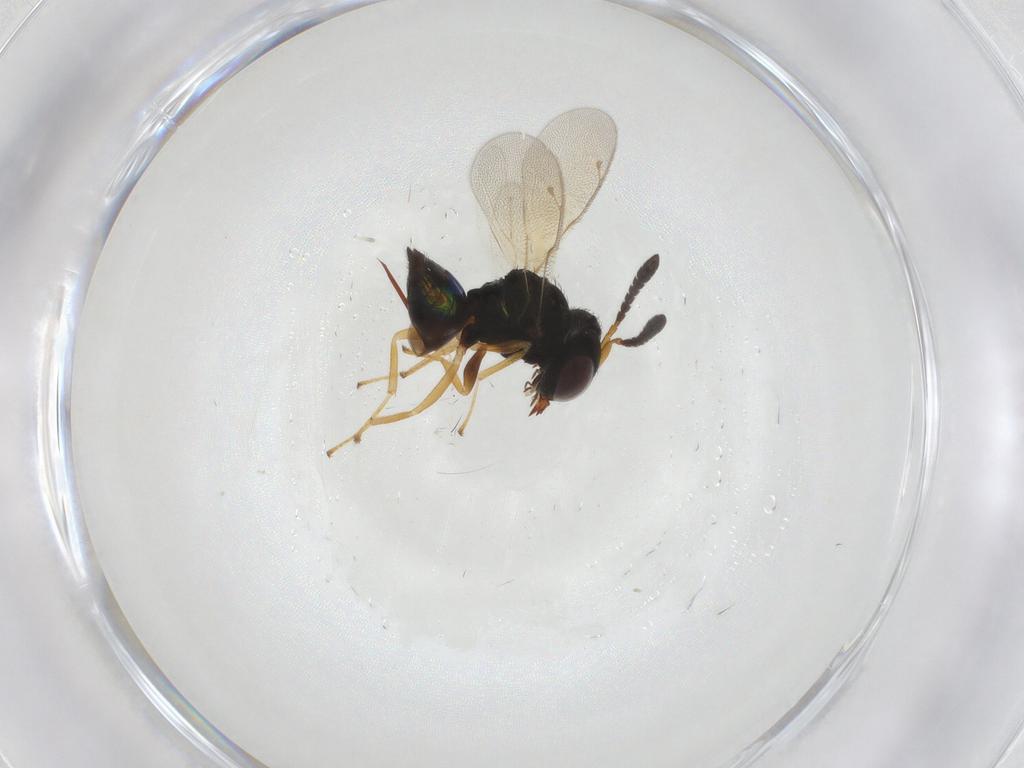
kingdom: Animalia
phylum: Arthropoda
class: Insecta
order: Hymenoptera
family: Pteromalidae
